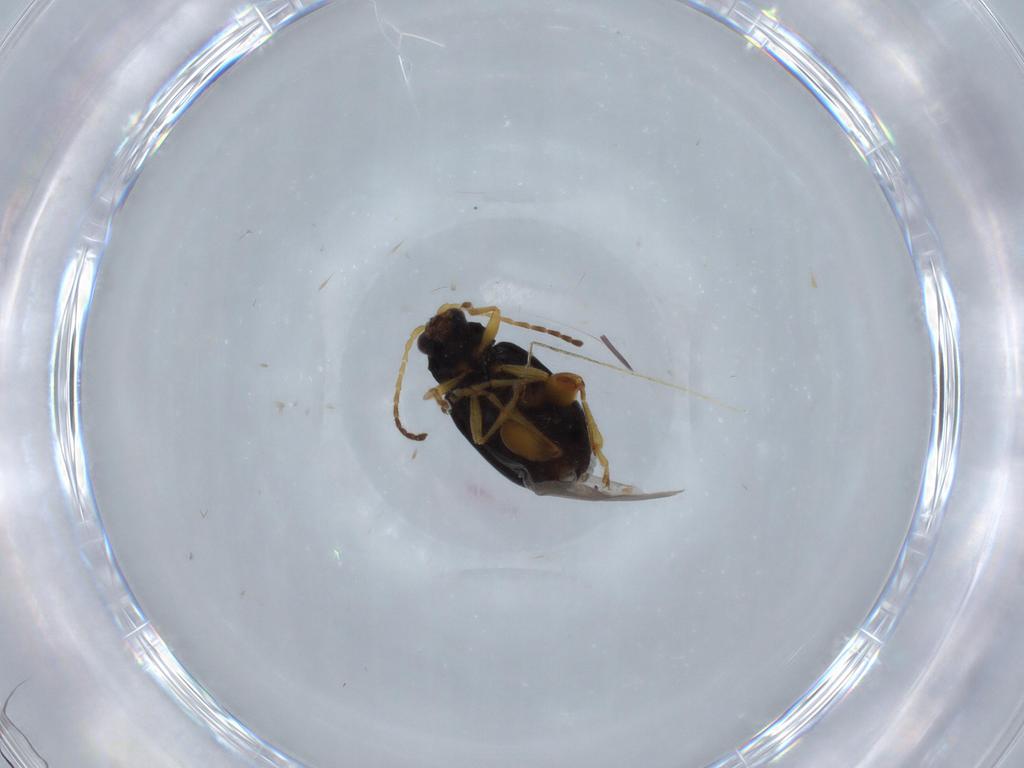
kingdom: Animalia
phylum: Arthropoda
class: Insecta
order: Coleoptera
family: Chrysomelidae
